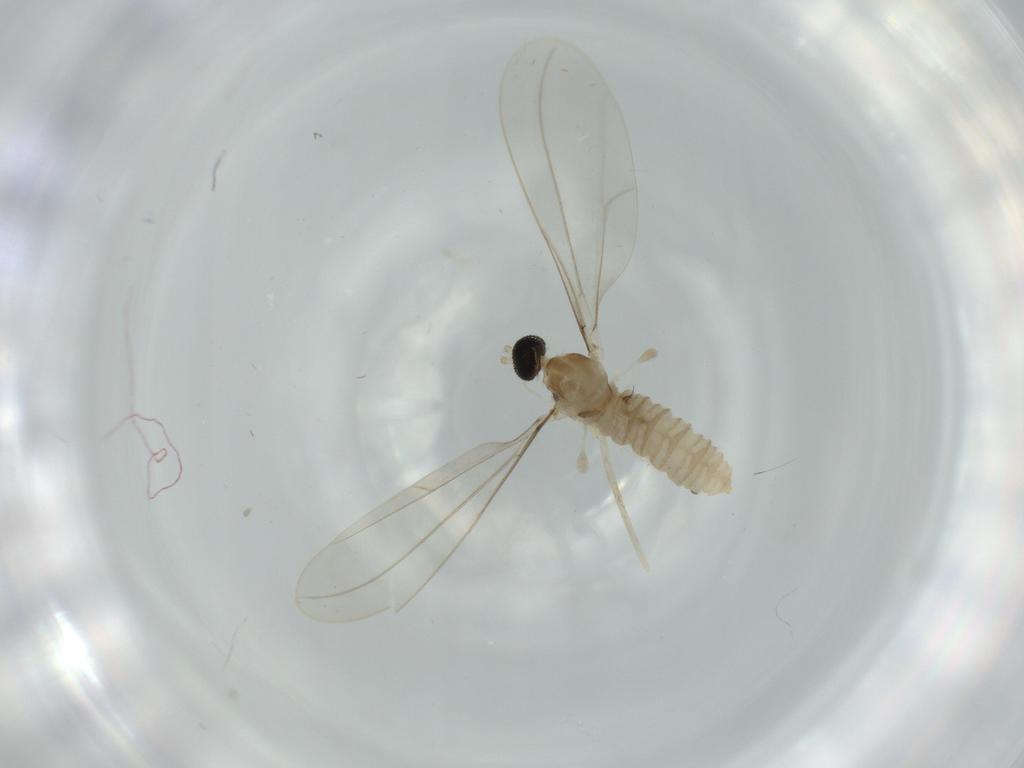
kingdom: Animalia
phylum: Arthropoda
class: Insecta
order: Diptera
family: Cecidomyiidae
